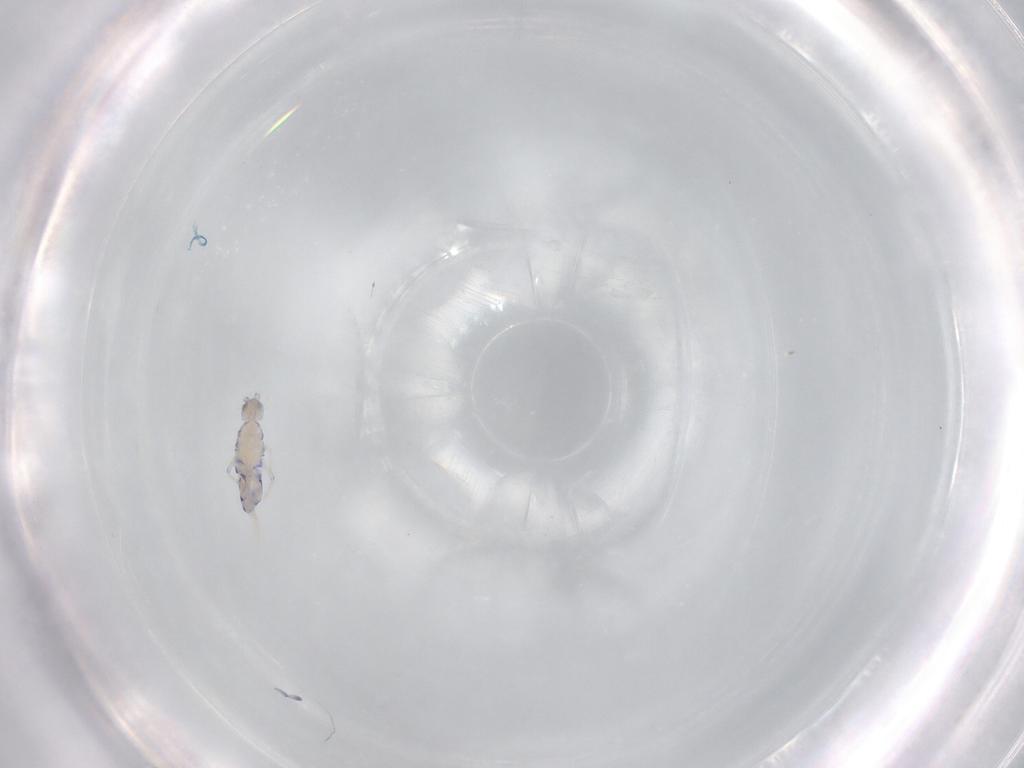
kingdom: Animalia
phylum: Arthropoda
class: Collembola
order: Entomobryomorpha
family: Entomobryidae
